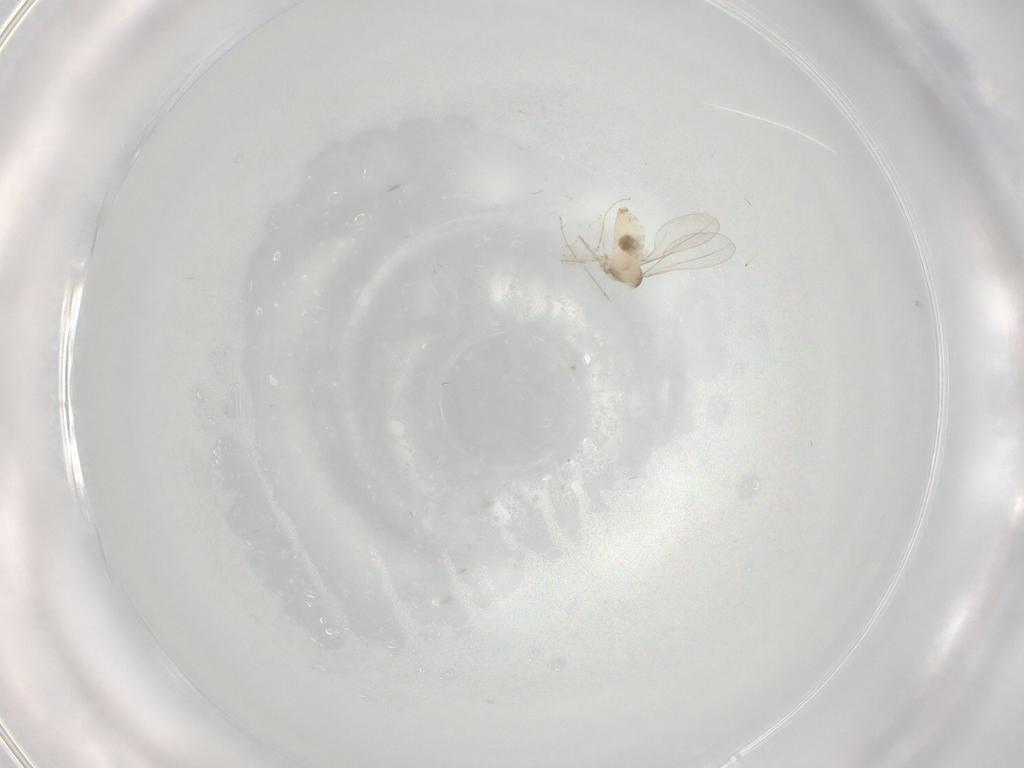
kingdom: Animalia
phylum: Arthropoda
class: Insecta
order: Diptera
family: Cecidomyiidae
